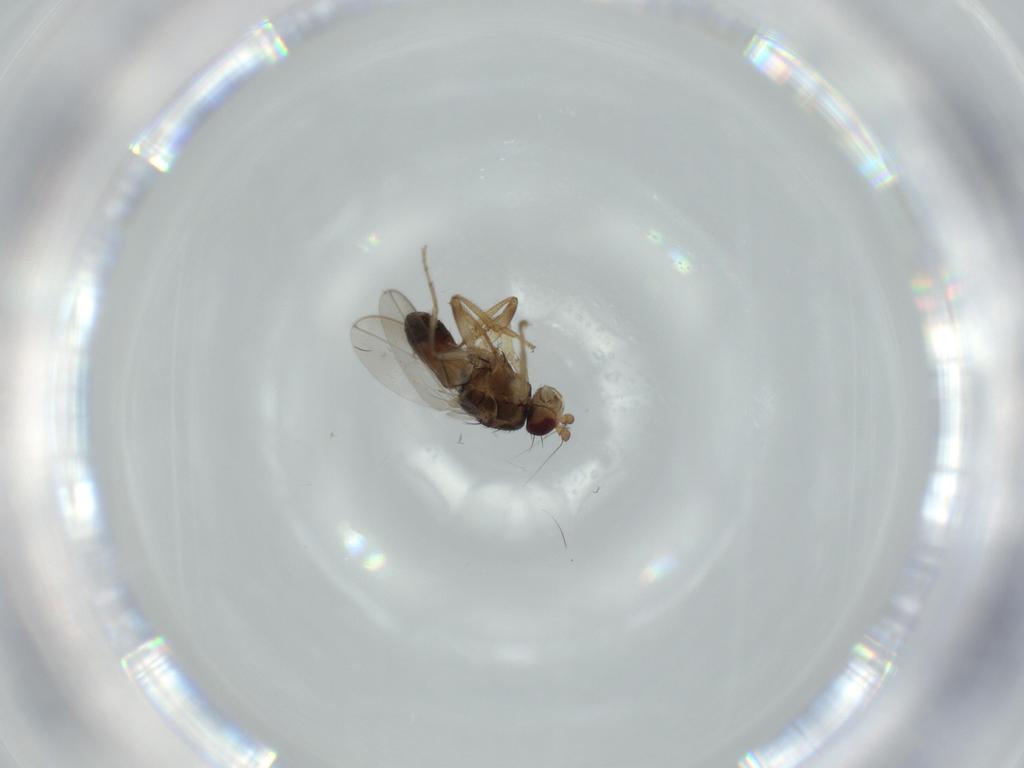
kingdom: Animalia
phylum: Arthropoda
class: Insecta
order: Diptera
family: Sphaeroceridae
